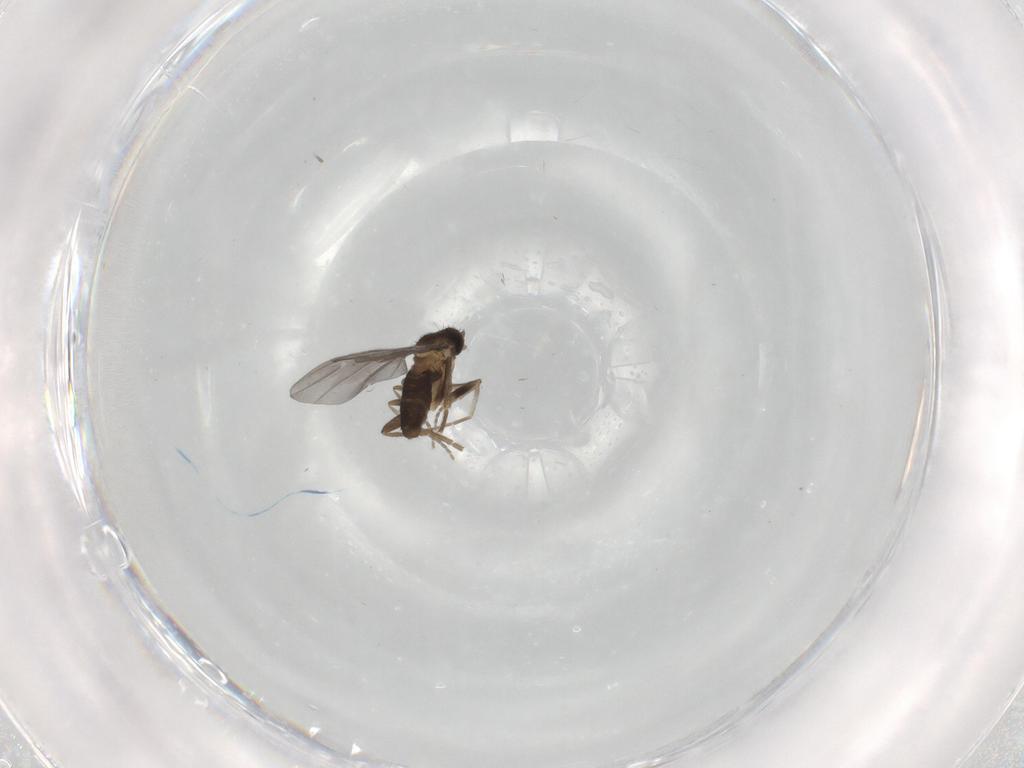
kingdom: Animalia
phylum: Arthropoda
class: Insecta
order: Diptera
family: Phoridae
